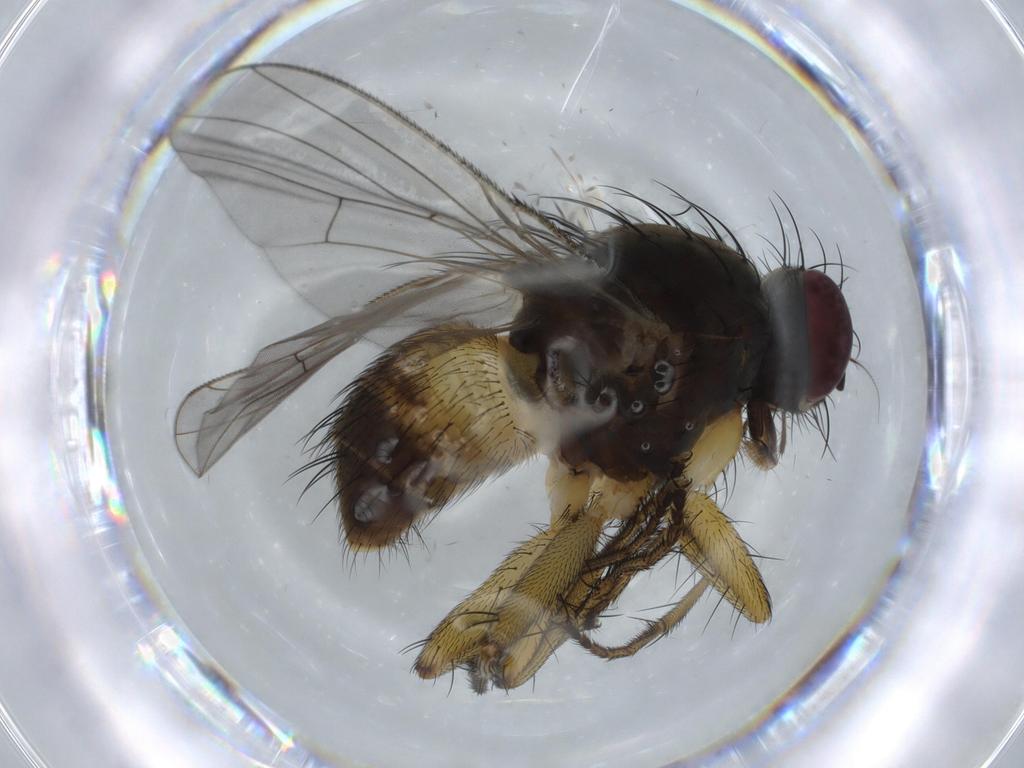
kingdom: Animalia
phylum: Arthropoda
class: Insecta
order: Diptera
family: Muscidae
